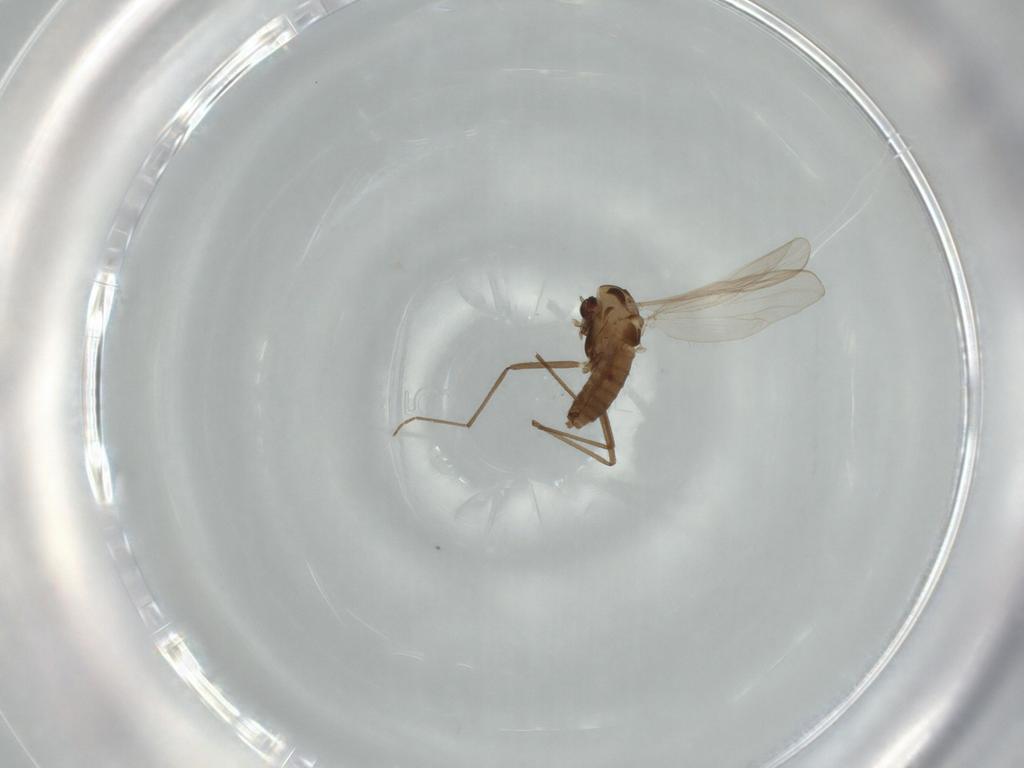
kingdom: Animalia
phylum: Arthropoda
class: Insecta
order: Diptera
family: Chironomidae
